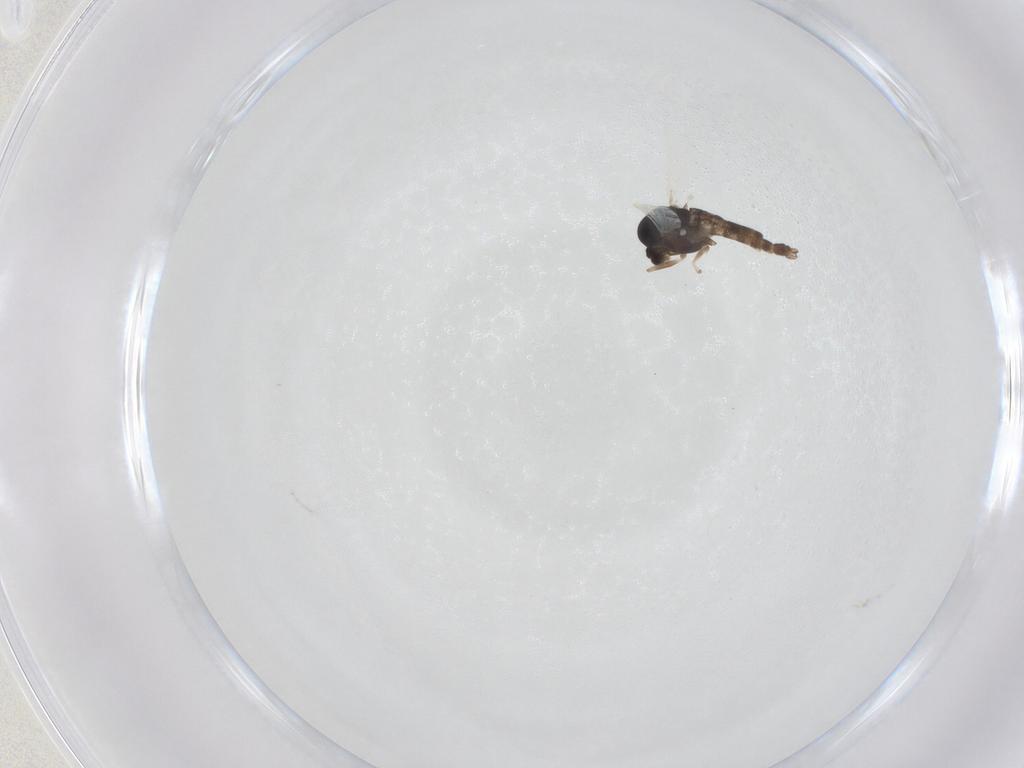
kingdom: Animalia
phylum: Arthropoda
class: Insecta
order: Diptera
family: Chironomidae
